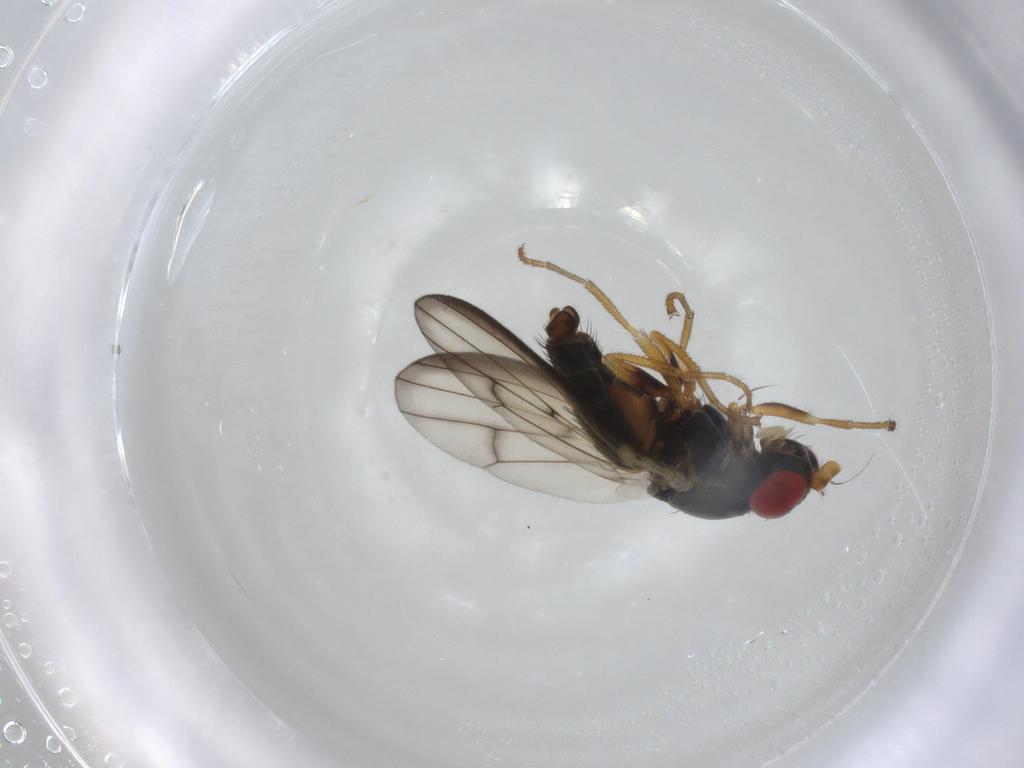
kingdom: Animalia
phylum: Arthropoda
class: Insecta
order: Diptera
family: Chamaemyiidae
